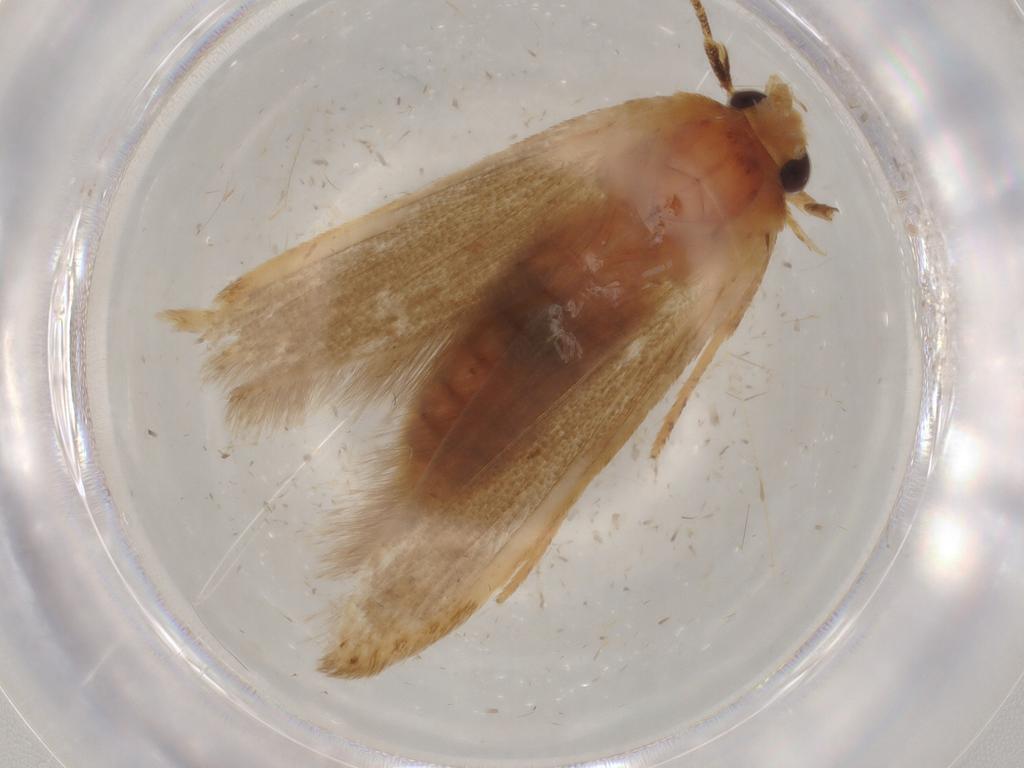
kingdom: Animalia
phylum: Arthropoda
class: Insecta
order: Lepidoptera
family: Blastobasidae
